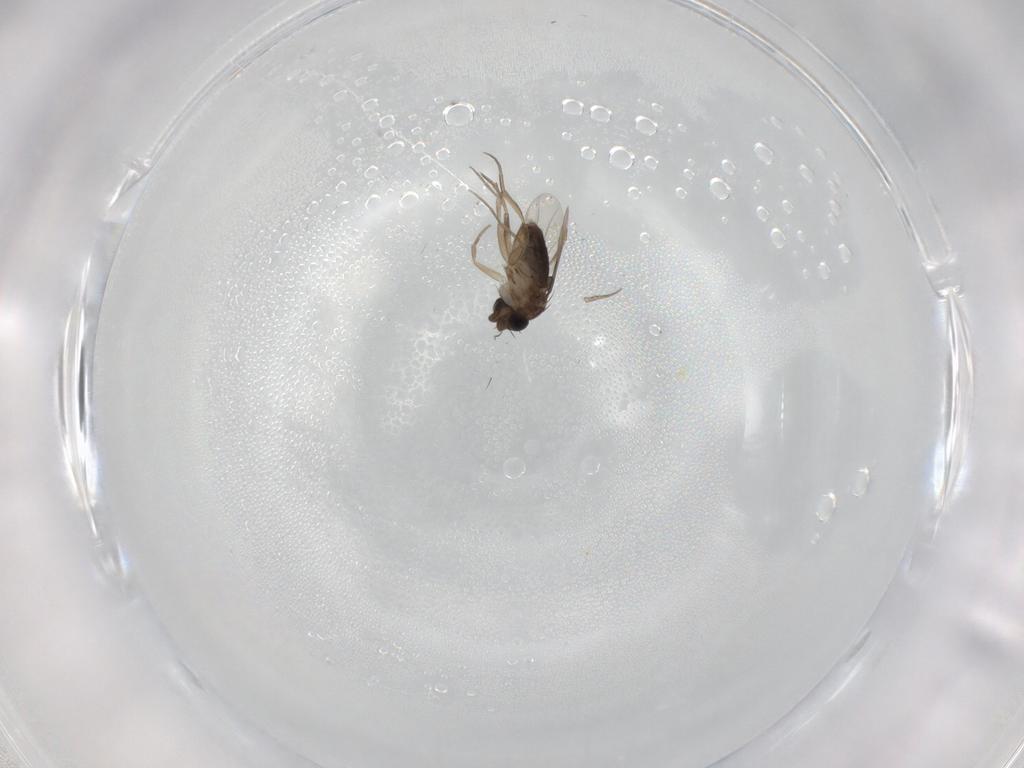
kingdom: Animalia
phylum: Arthropoda
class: Insecta
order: Diptera
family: Phoridae
